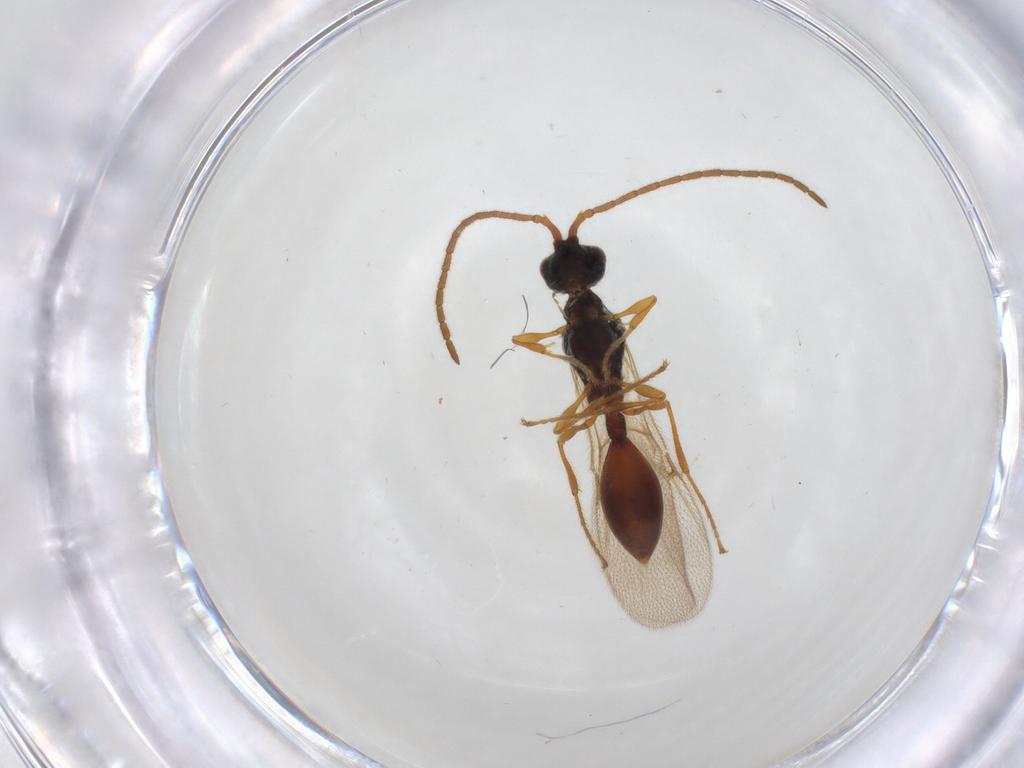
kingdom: Animalia
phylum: Arthropoda
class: Insecta
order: Hymenoptera
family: Diapriidae
